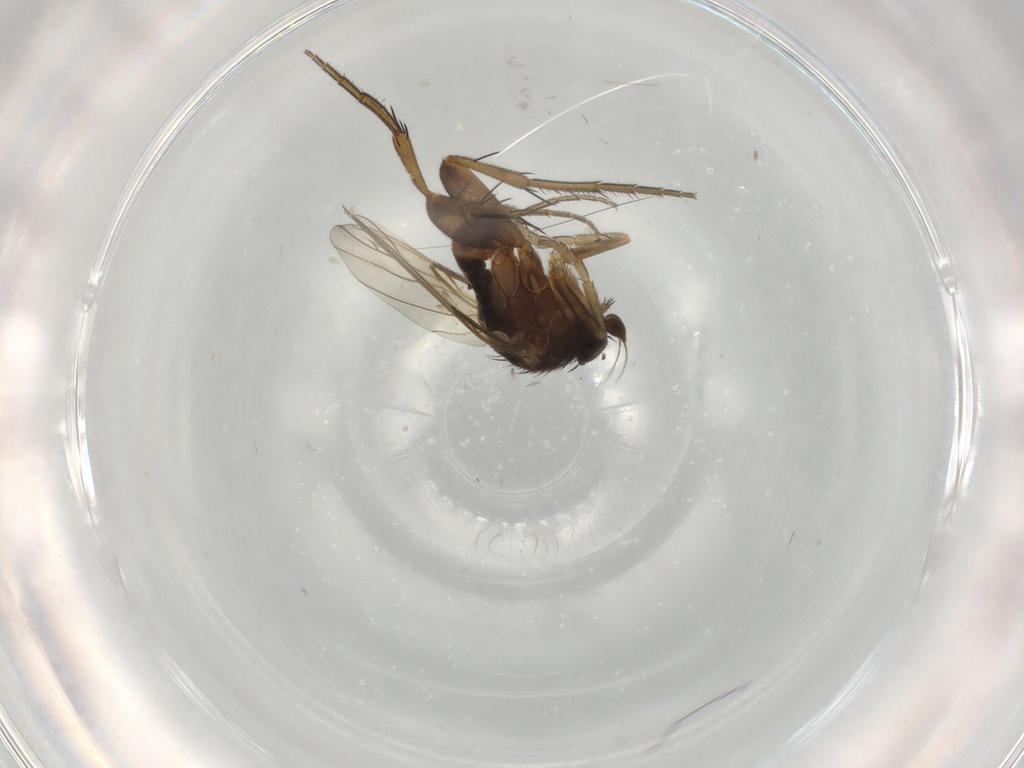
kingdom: Animalia
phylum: Arthropoda
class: Insecta
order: Diptera
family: Phoridae
